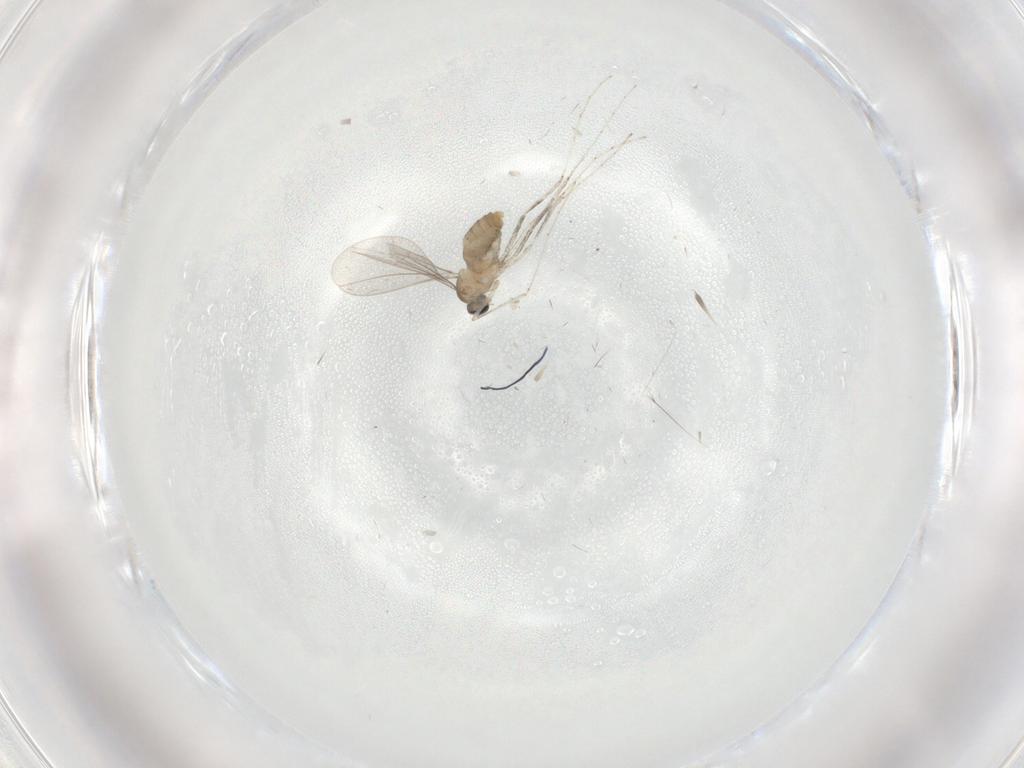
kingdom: Animalia
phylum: Arthropoda
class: Insecta
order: Diptera
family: Cecidomyiidae
